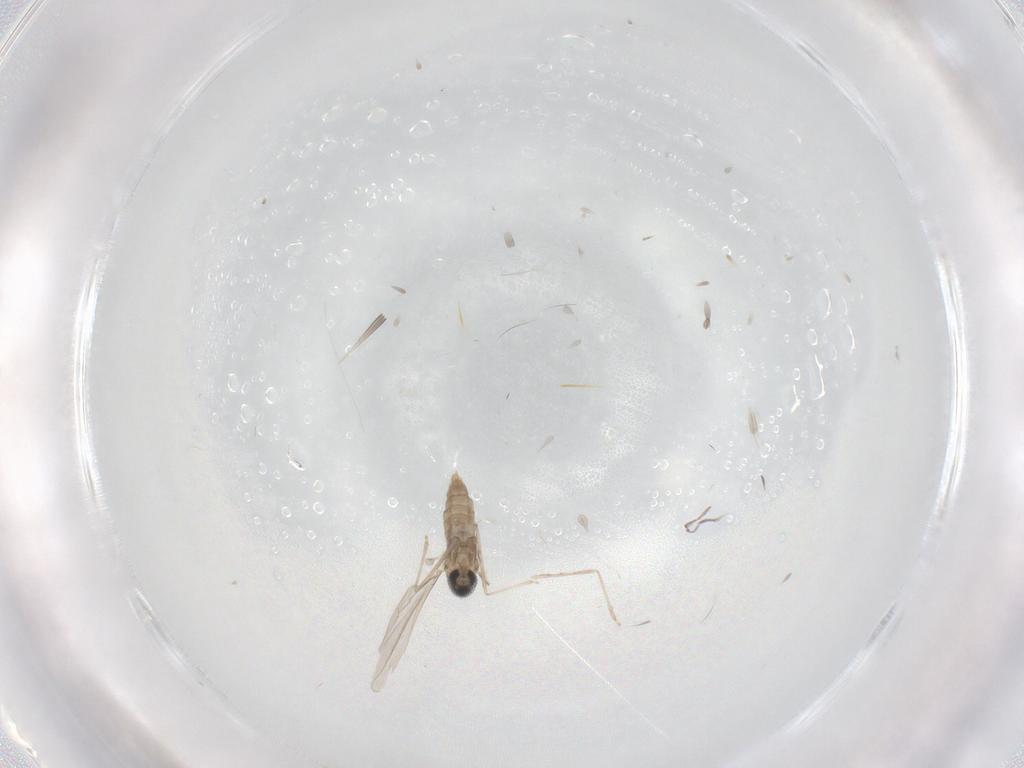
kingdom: Animalia
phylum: Arthropoda
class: Insecta
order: Diptera
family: Cecidomyiidae
